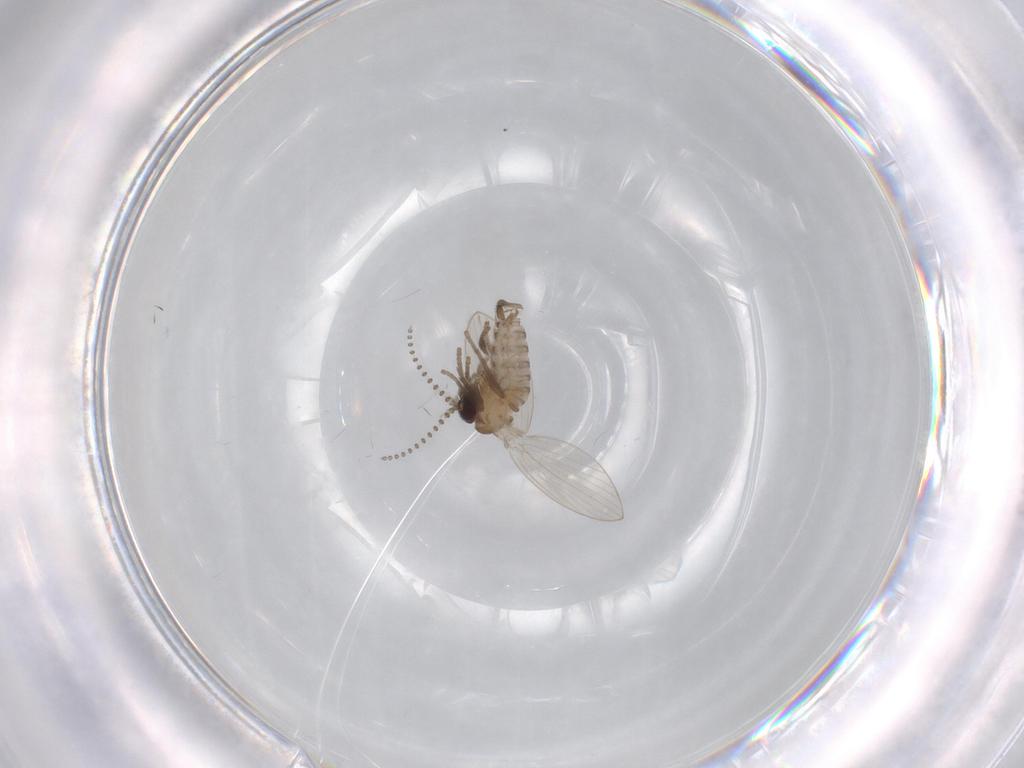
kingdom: Animalia
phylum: Arthropoda
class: Insecta
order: Diptera
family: Psychodidae
